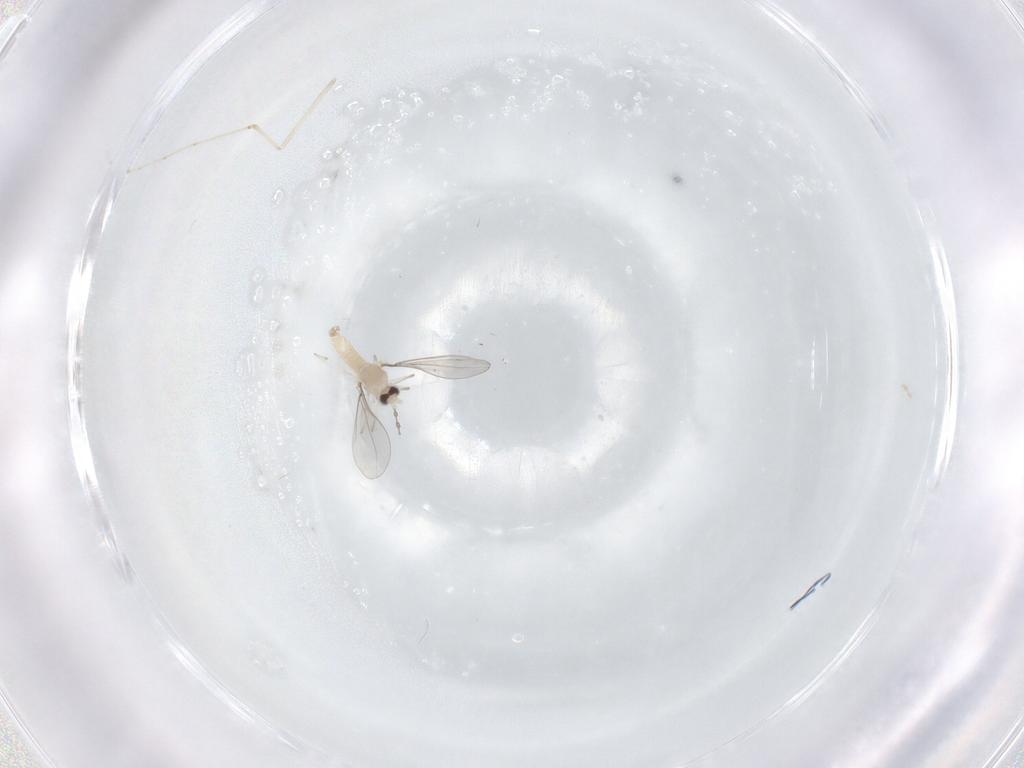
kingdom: Animalia
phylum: Arthropoda
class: Insecta
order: Diptera
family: Cecidomyiidae
